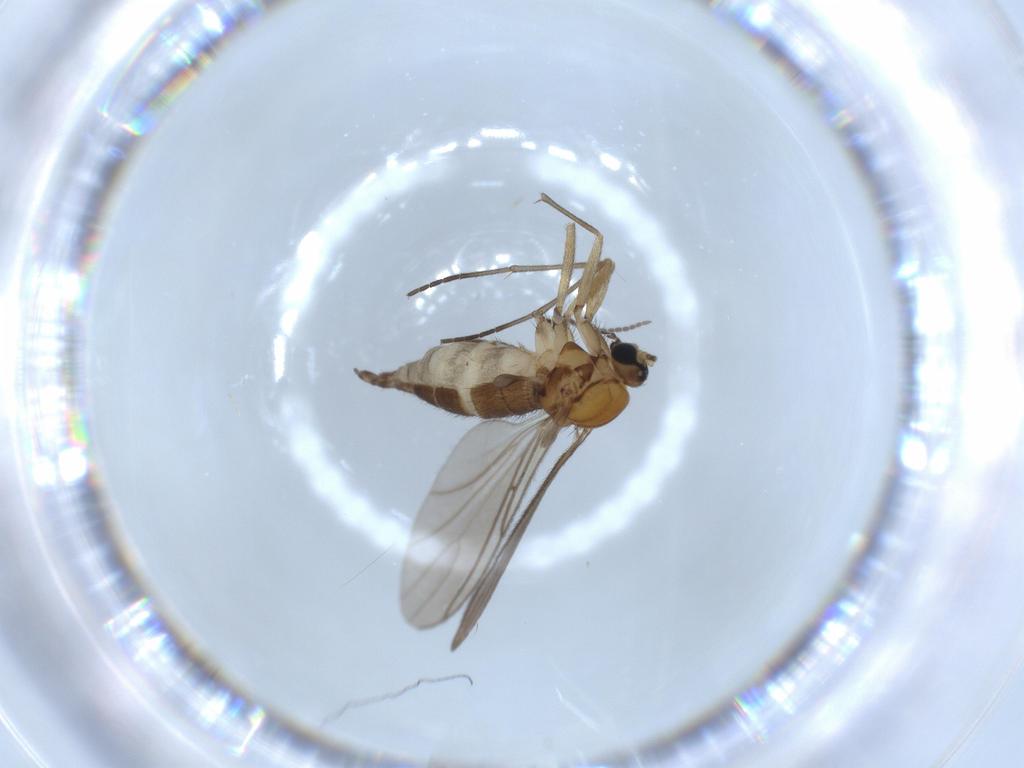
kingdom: Animalia
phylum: Arthropoda
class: Insecta
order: Diptera
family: Sciaridae
